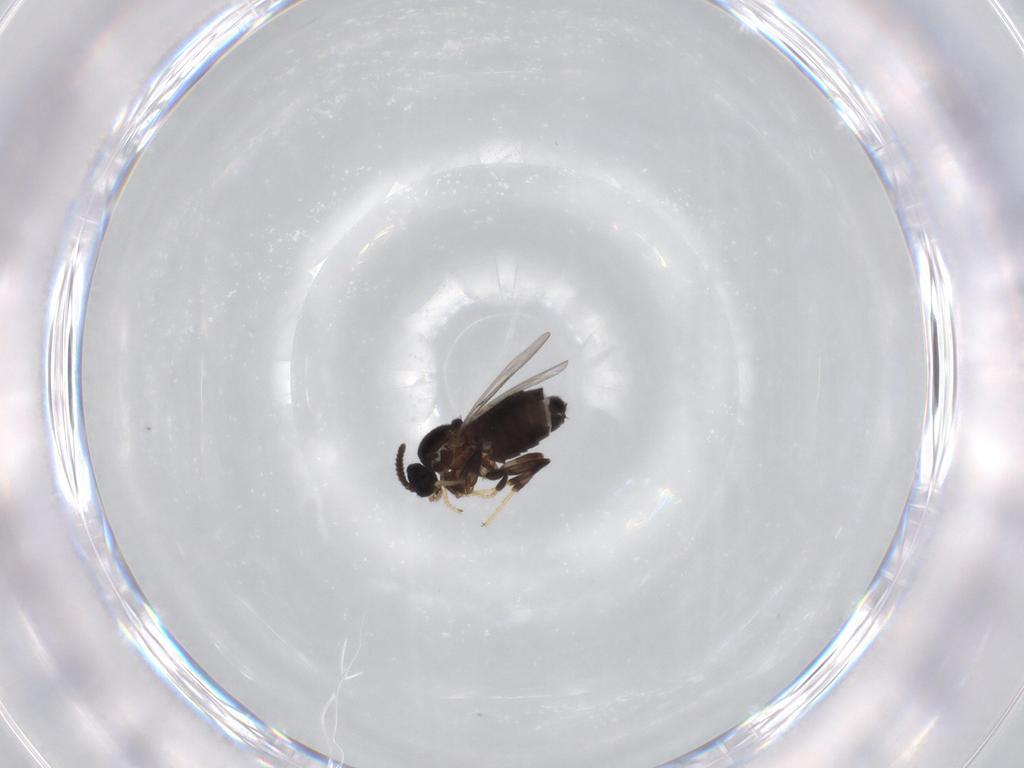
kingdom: Animalia
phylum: Arthropoda
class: Insecta
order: Diptera
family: Scatopsidae
